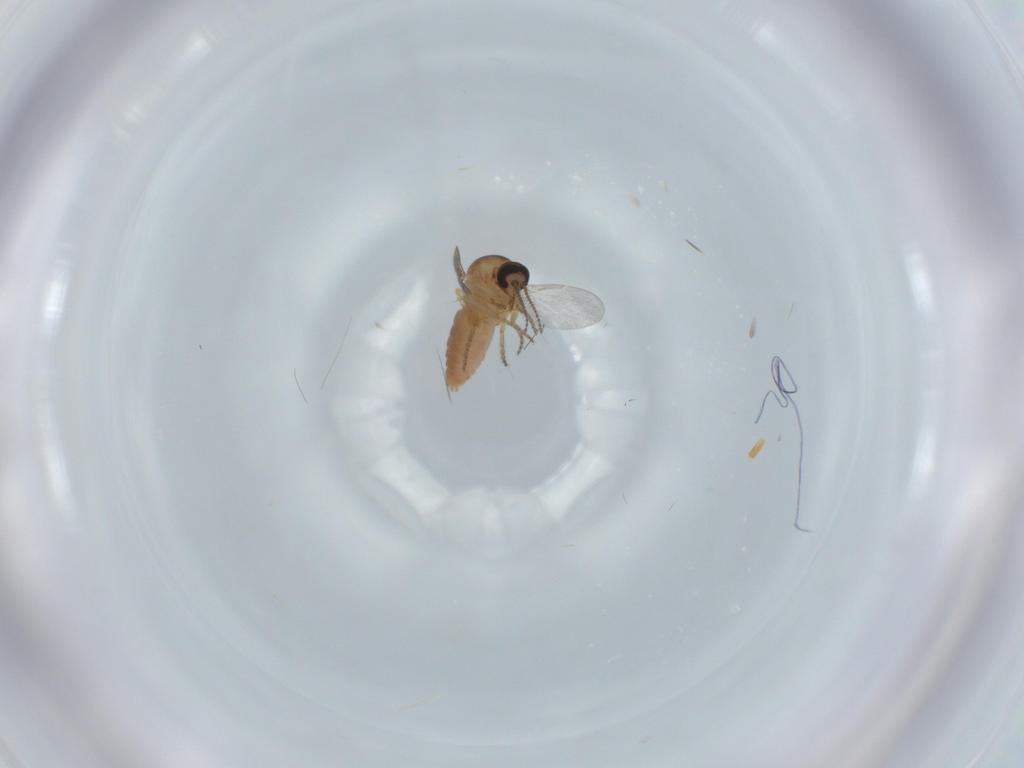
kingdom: Animalia
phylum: Arthropoda
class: Insecta
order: Diptera
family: Ceratopogonidae
